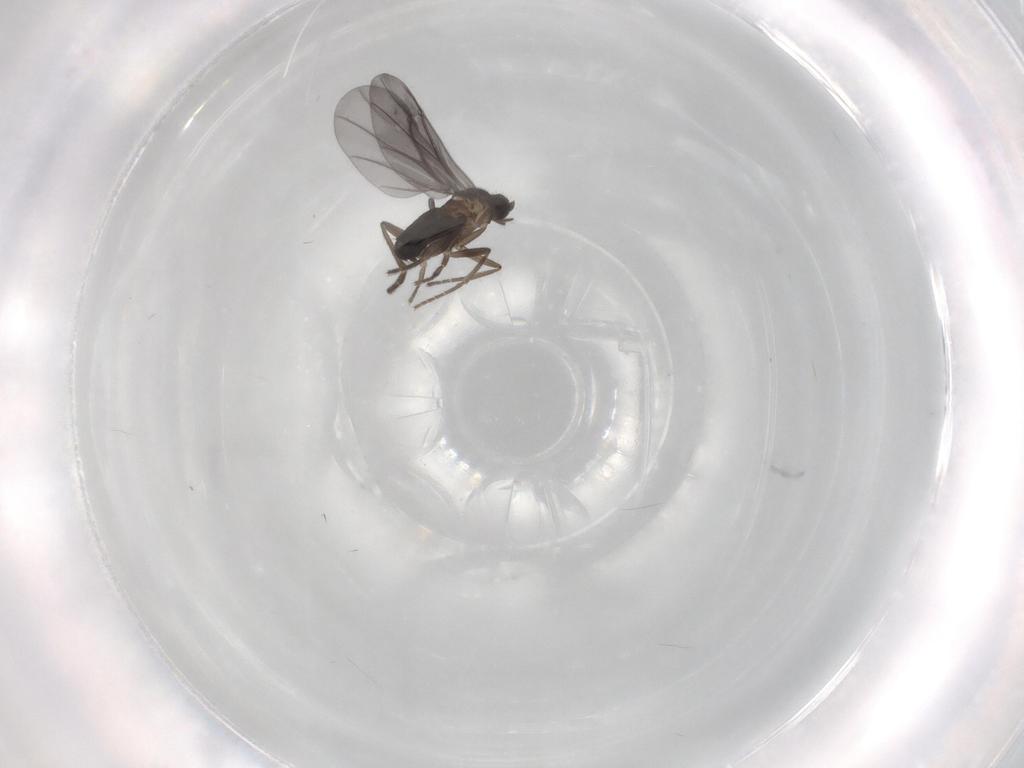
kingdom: Animalia
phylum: Arthropoda
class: Insecta
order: Diptera
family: Phoridae
